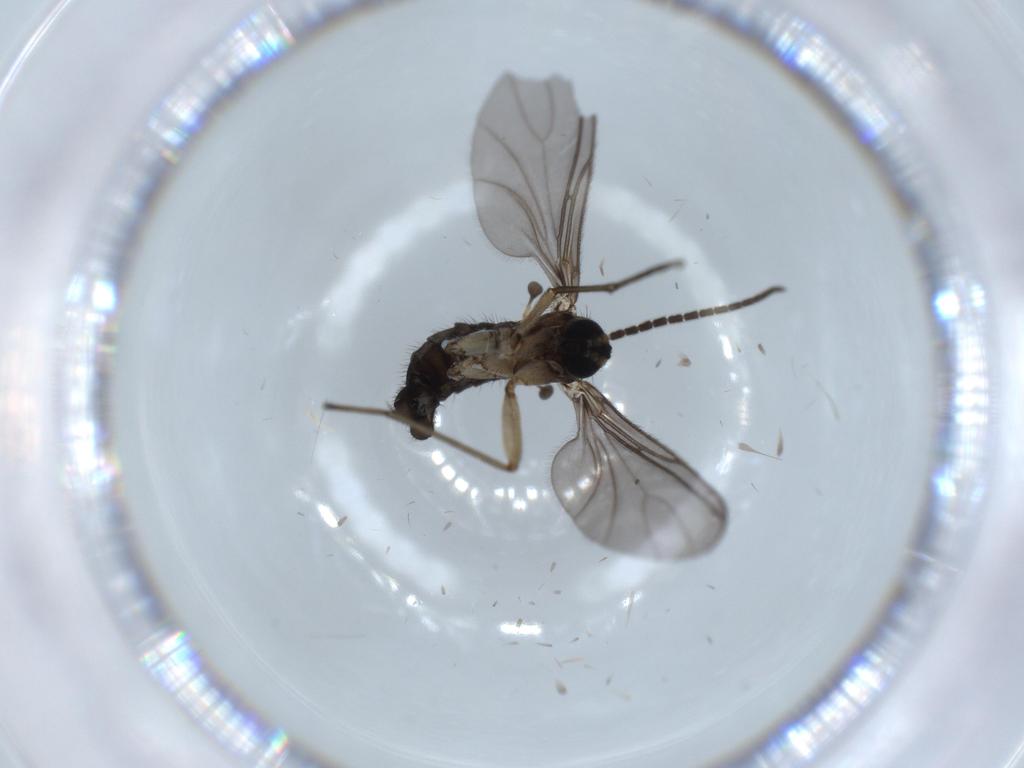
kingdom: Animalia
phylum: Arthropoda
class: Insecta
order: Diptera
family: Sciaridae
